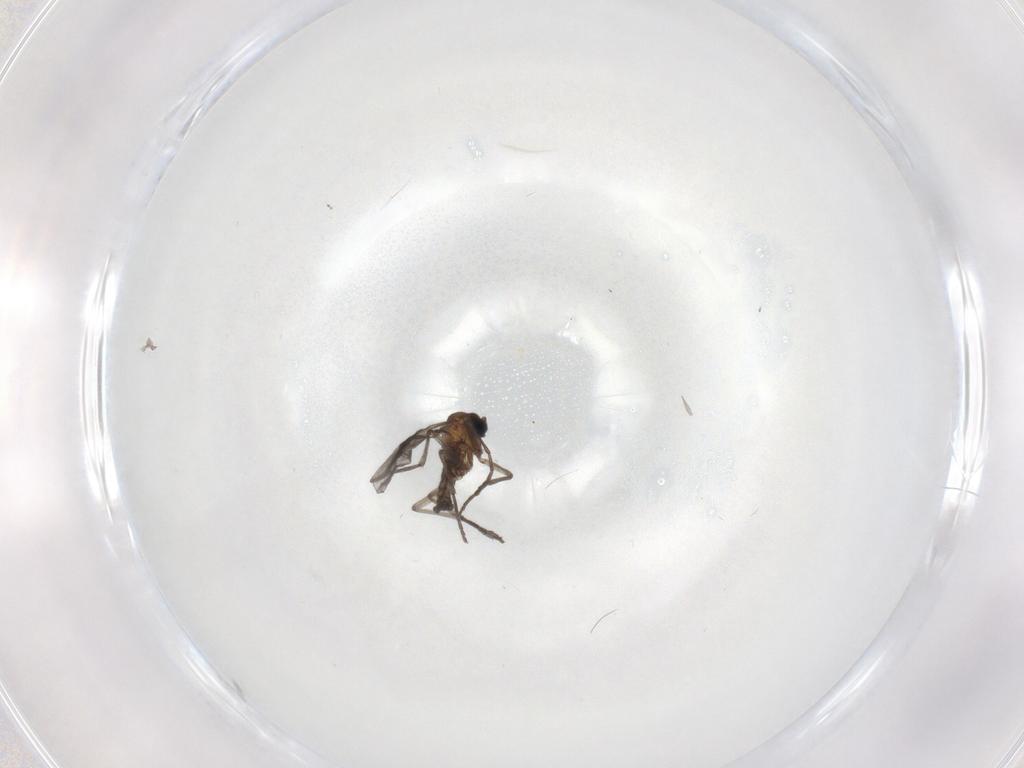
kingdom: Animalia
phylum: Arthropoda
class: Insecta
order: Diptera
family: Sciaridae
